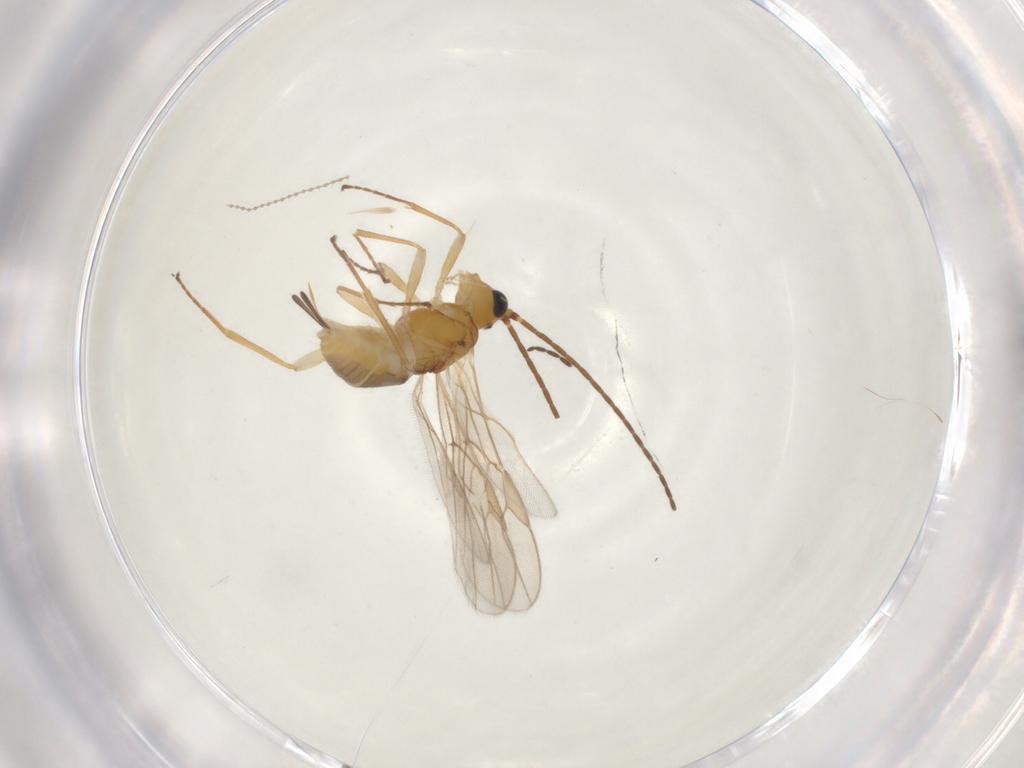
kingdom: Animalia
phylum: Arthropoda
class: Insecta
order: Hymenoptera
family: Braconidae
